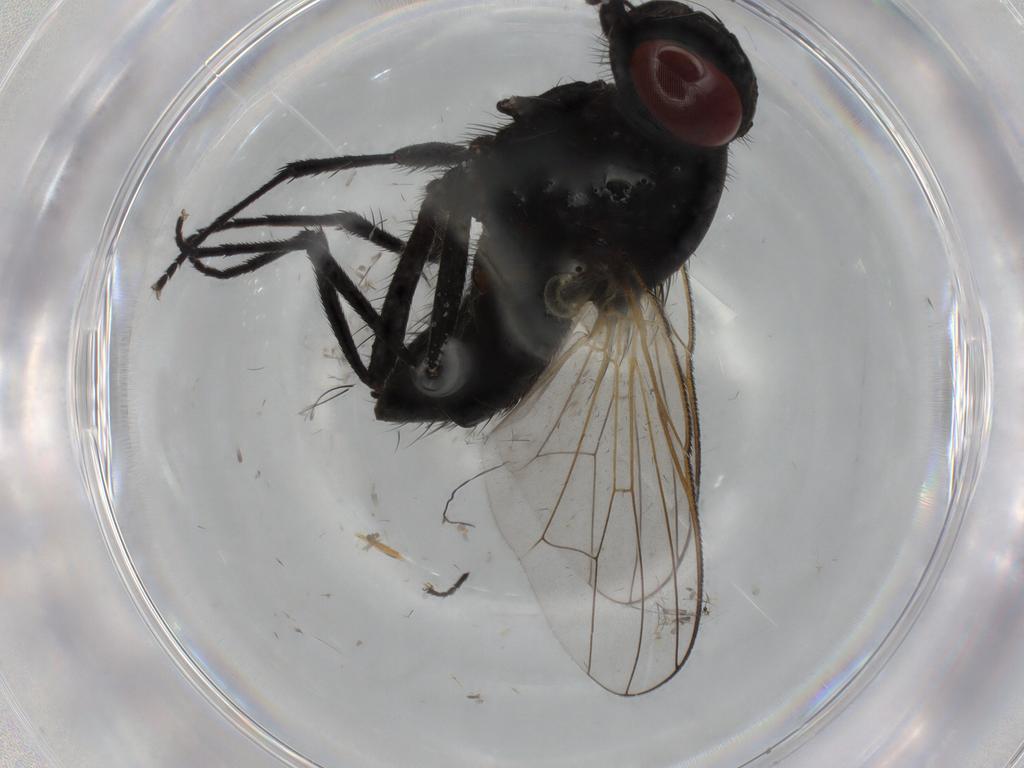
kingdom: Animalia
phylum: Arthropoda
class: Insecta
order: Diptera
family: Muscidae
